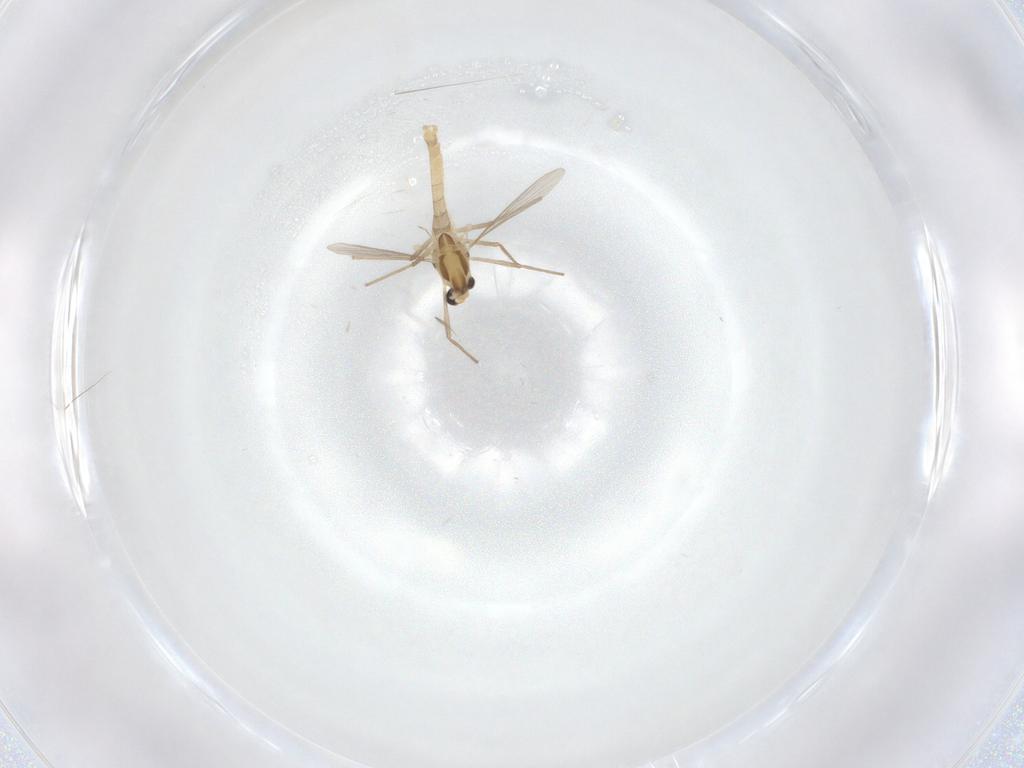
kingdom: Animalia
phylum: Arthropoda
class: Insecta
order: Diptera
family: Chironomidae
